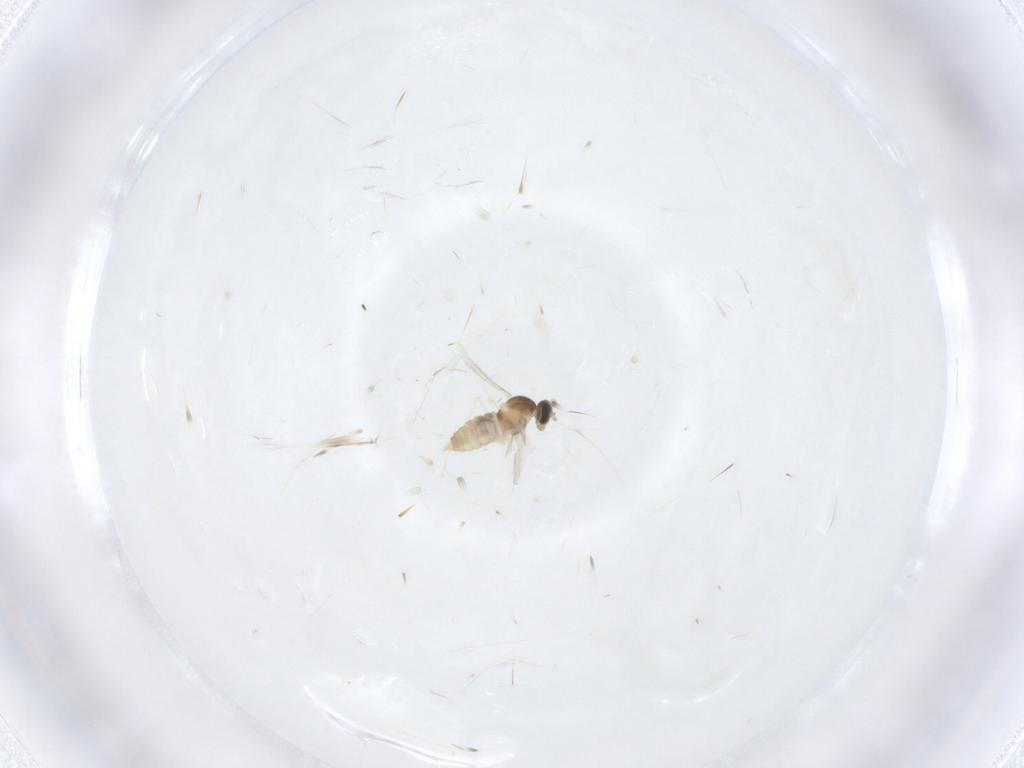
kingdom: Animalia
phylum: Arthropoda
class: Insecta
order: Diptera
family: Cecidomyiidae
